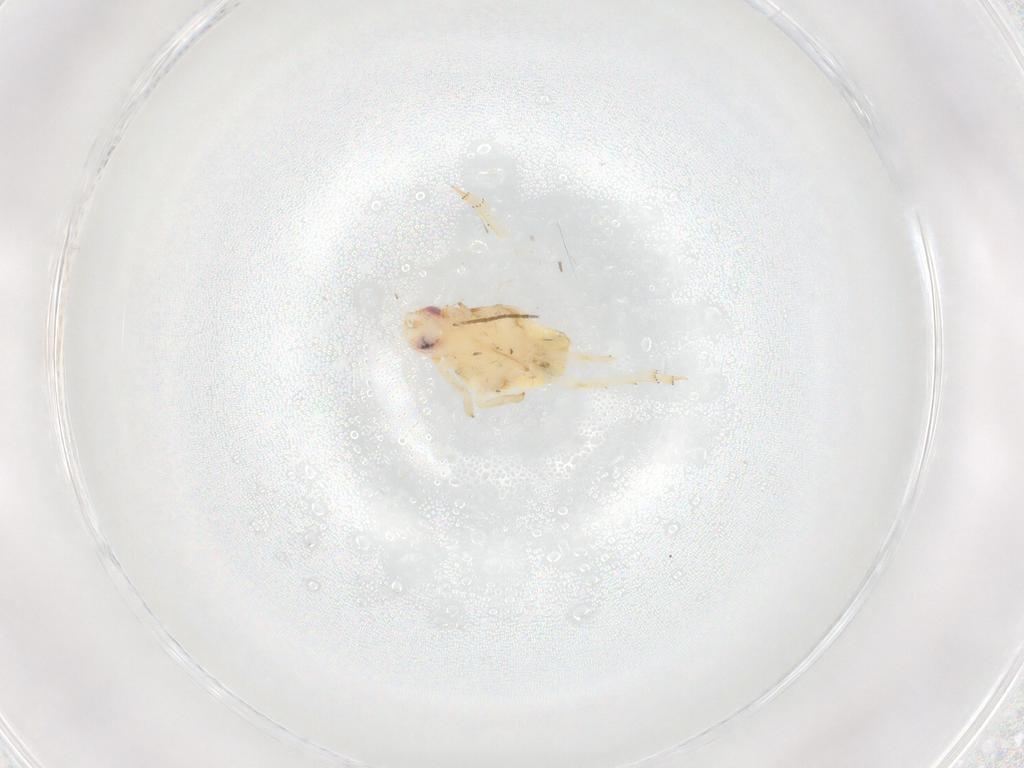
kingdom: Animalia
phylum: Arthropoda
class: Insecta
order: Hemiptera
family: Flatidae
